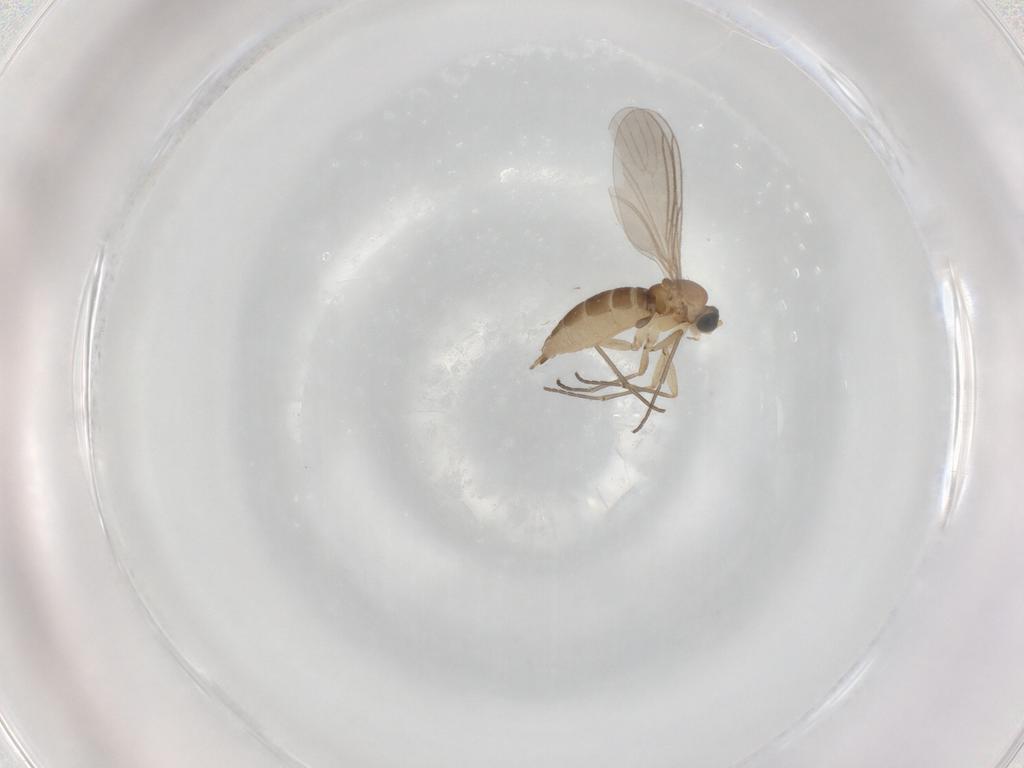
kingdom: Animalia
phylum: Arthropoda
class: Insecta
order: Diptera
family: Sciaridae
